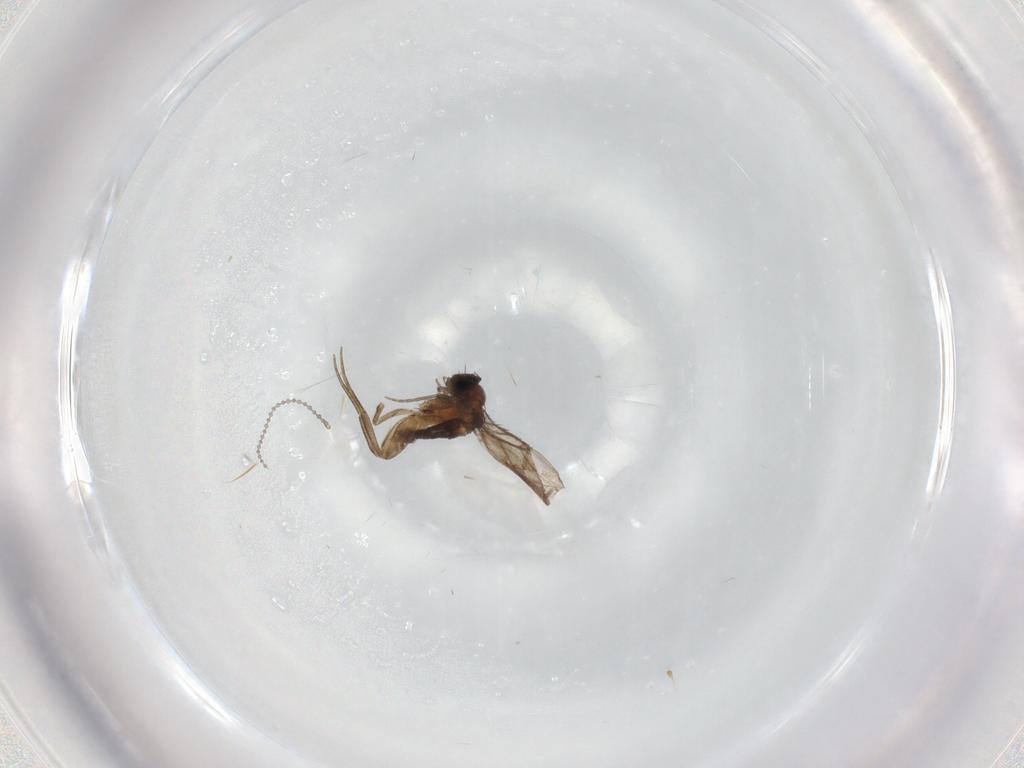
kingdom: Animalia
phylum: Arthropoda
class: Insecta
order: Diptera
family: Phoridae
